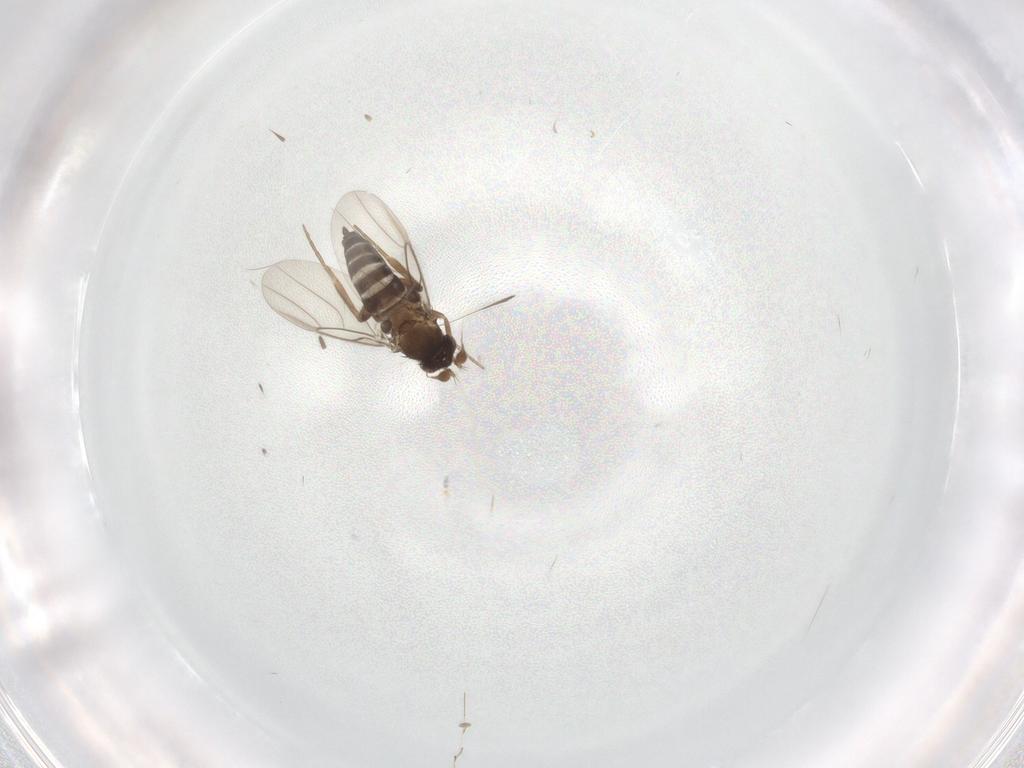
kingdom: Animalia
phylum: Arthropoda
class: Insecta
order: Diptera
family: Phoridae
